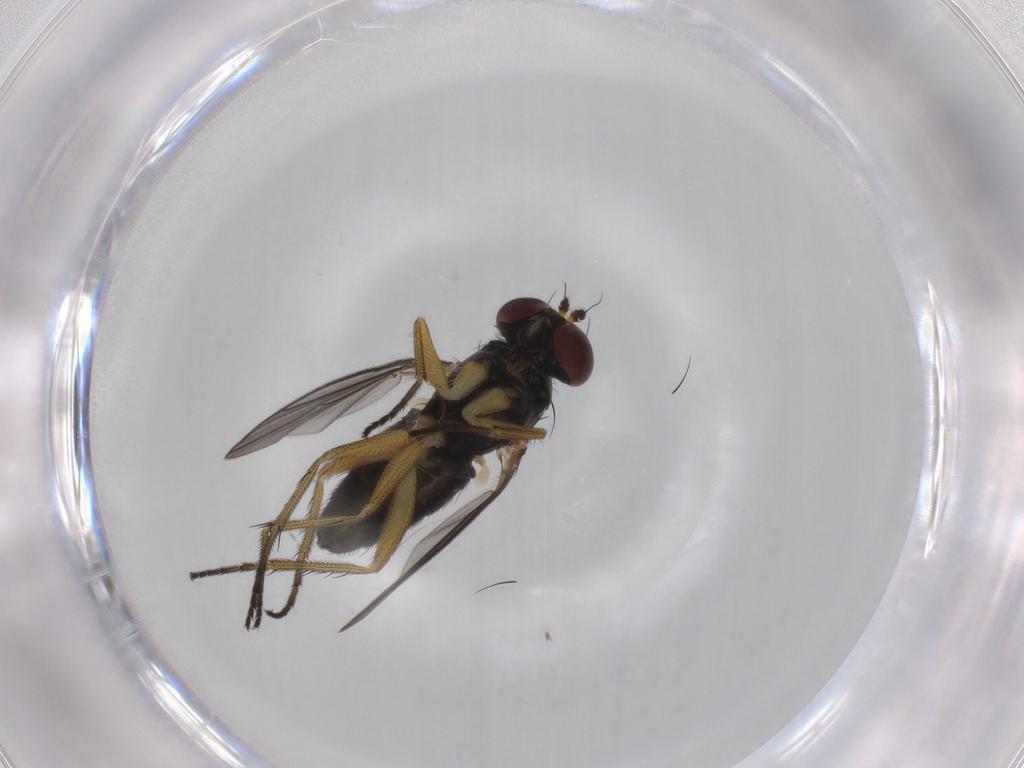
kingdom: Animalia
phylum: Arthropoda
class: Insecta
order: Diptera
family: Dolichopodidae
